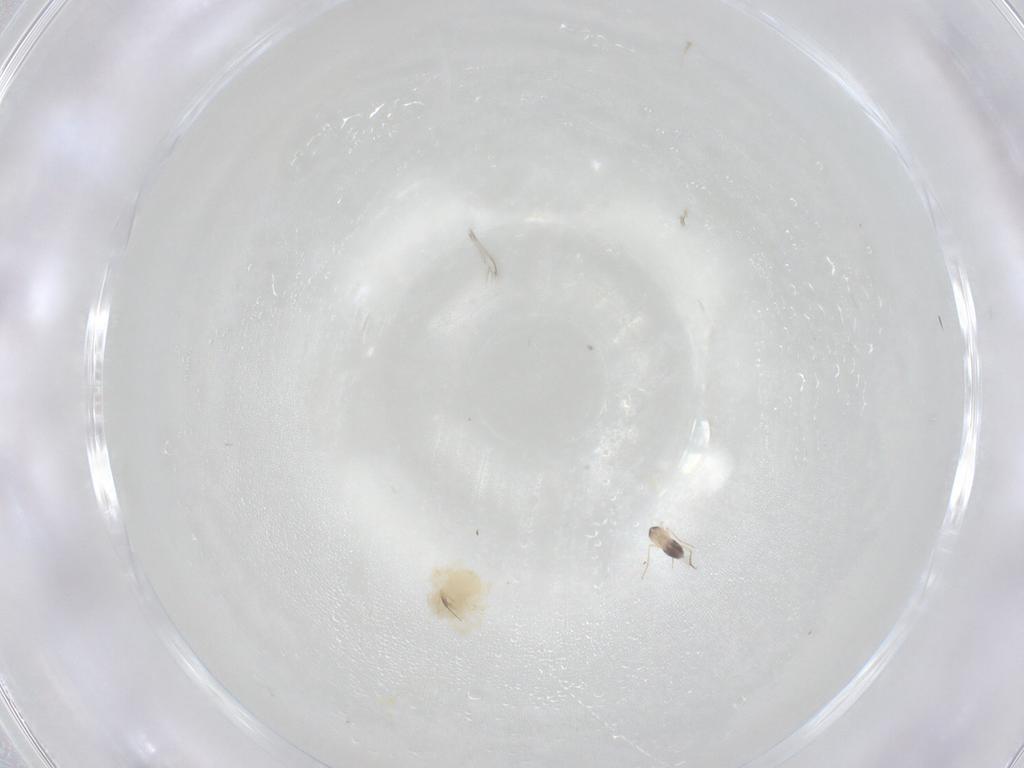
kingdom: Animalia
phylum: Arthropoda
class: Arachnida
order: Trombidiformes
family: Anystidae
